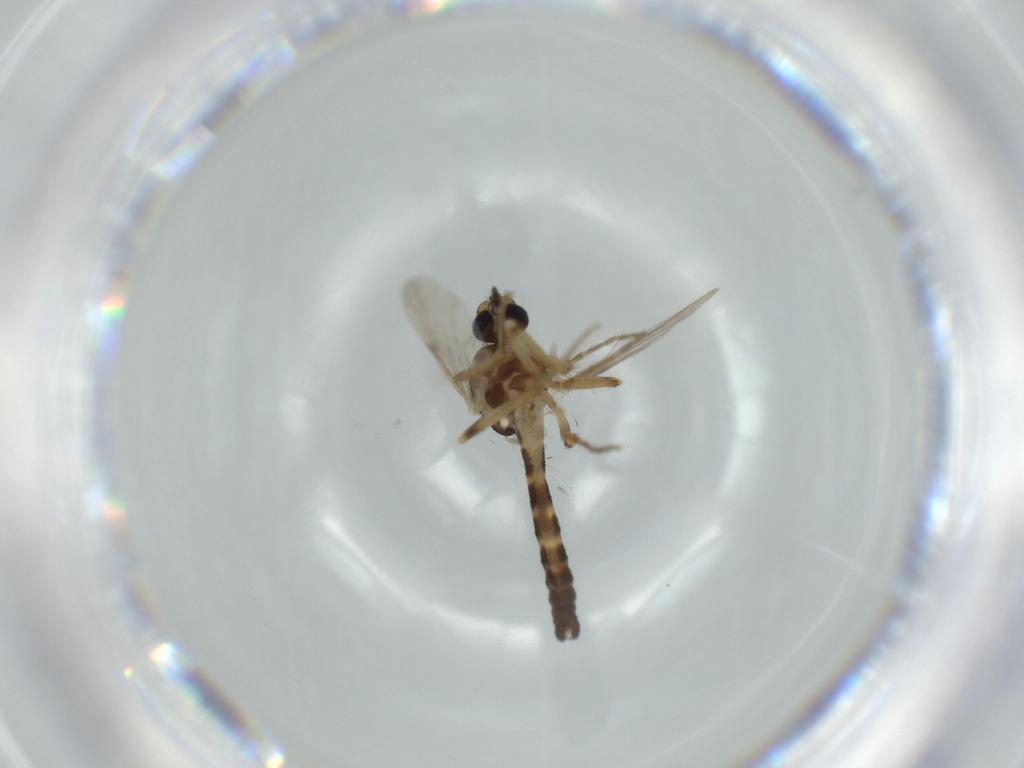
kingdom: Animalia
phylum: Arthropoda
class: Insecta
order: Diptera
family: Ceratopogonidae
